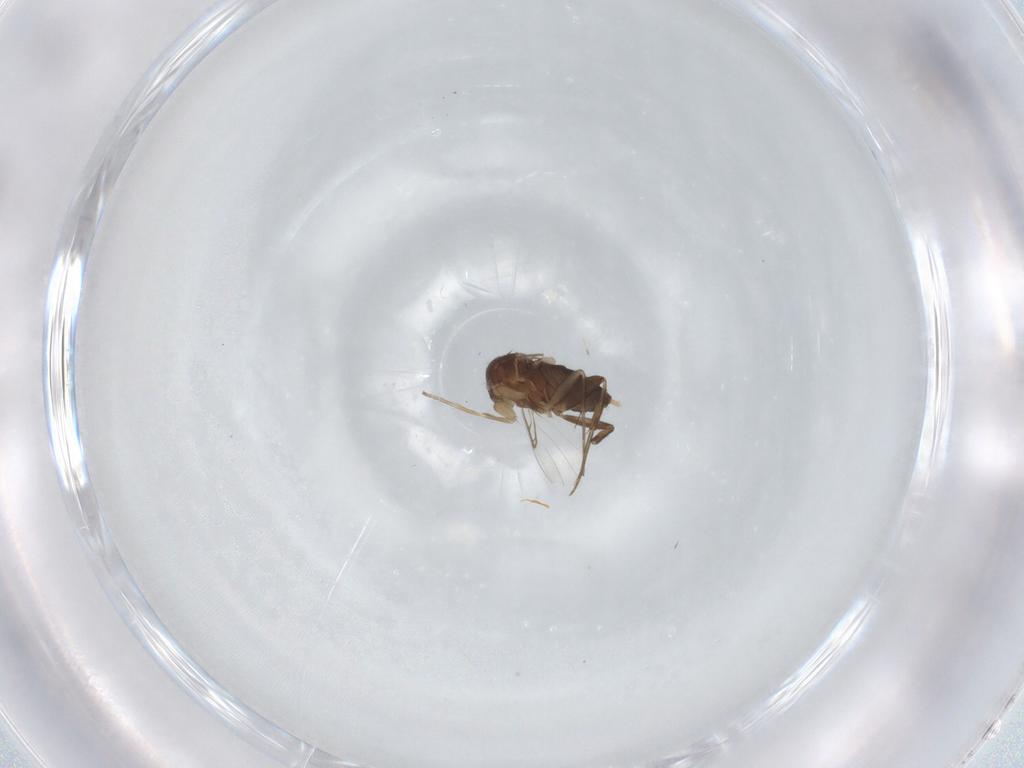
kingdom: Animalia
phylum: Arthropoda
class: Insecta
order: Diptera
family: Phoridae
